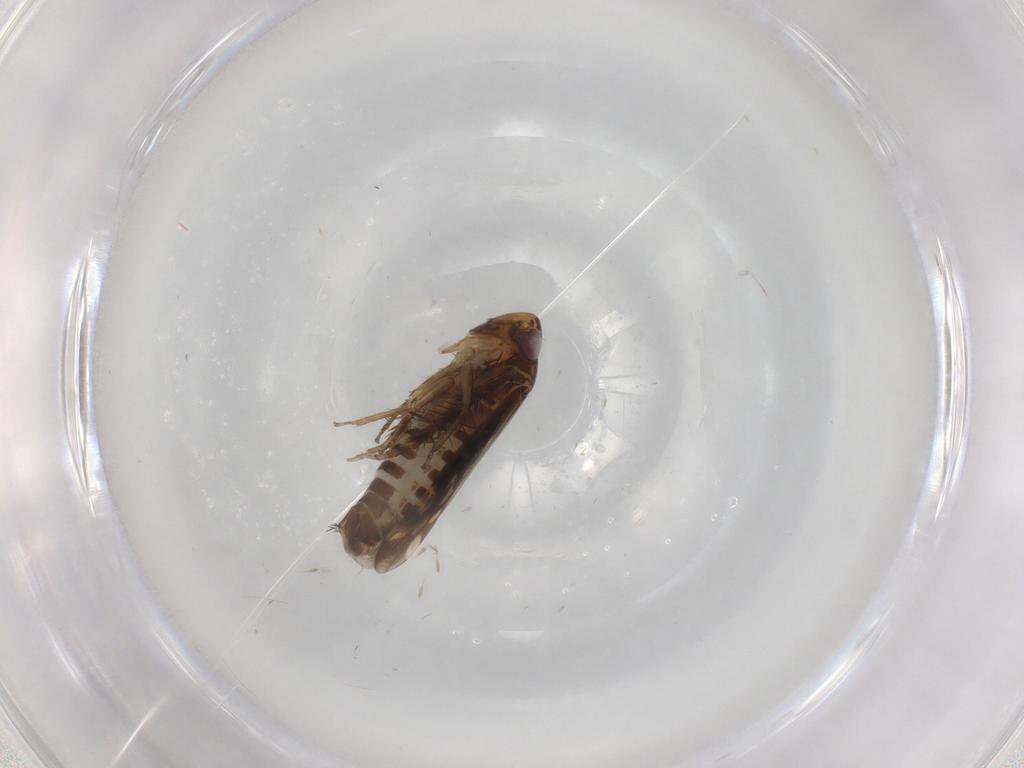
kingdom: Animalia
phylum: Arthropoda
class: Insecta
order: Hemiptera
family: Cicadellidae
